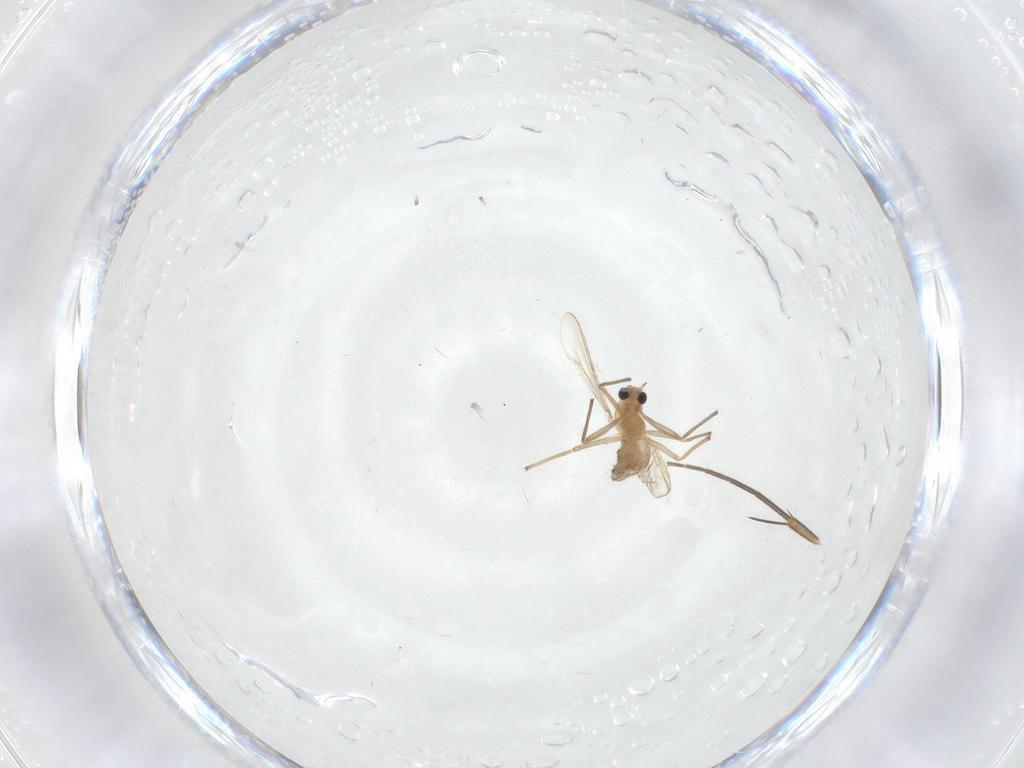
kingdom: Animalia
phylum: Arthropoda
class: Insecta
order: Diptera
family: Chironomidae
